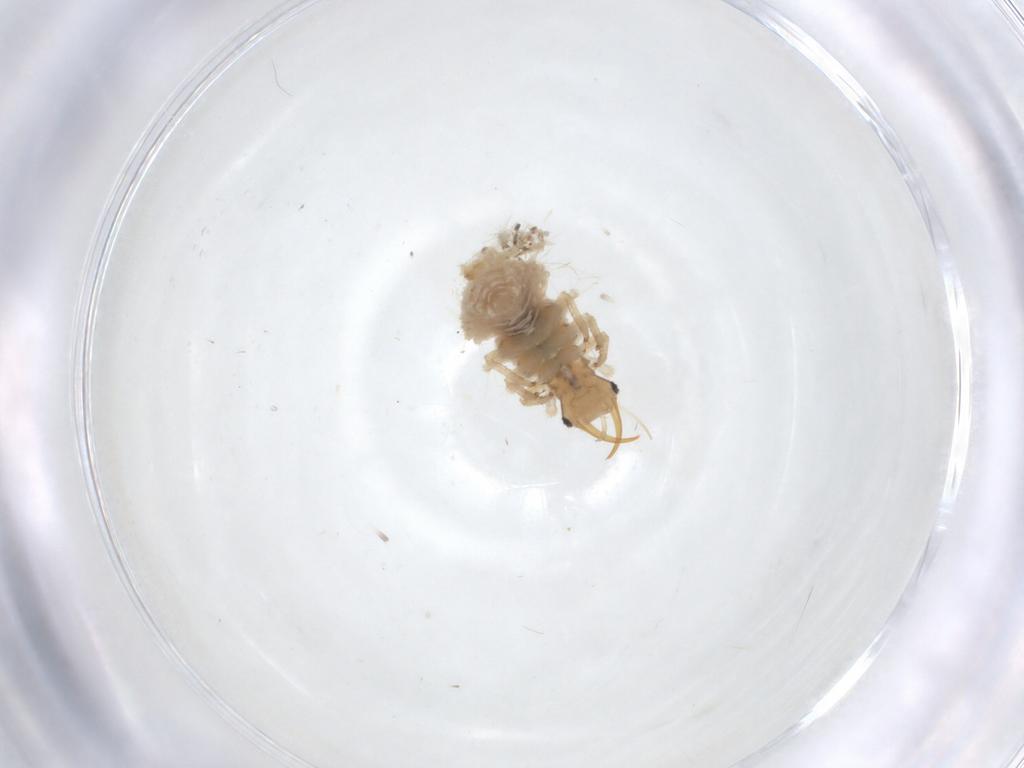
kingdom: Animalia
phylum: Arthropoda
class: Insecta
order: Neuroptera
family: Chrysopidae
